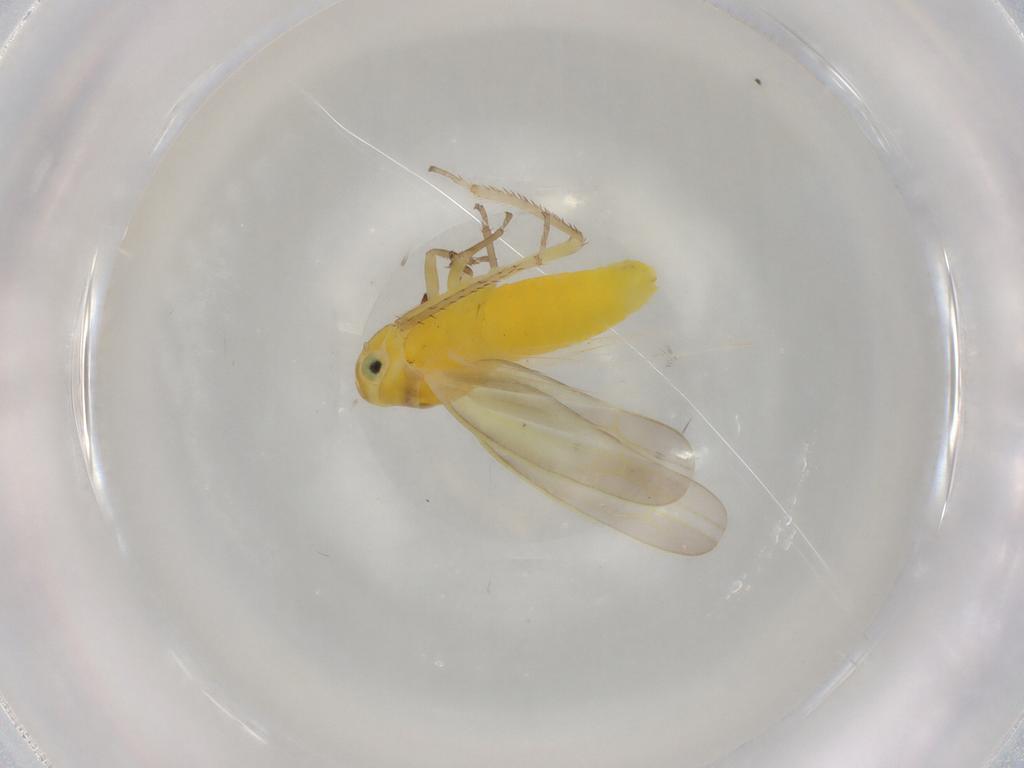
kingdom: Animalia
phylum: Arthropoda
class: Insecta
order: Hemiptera
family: Cicadellidae
